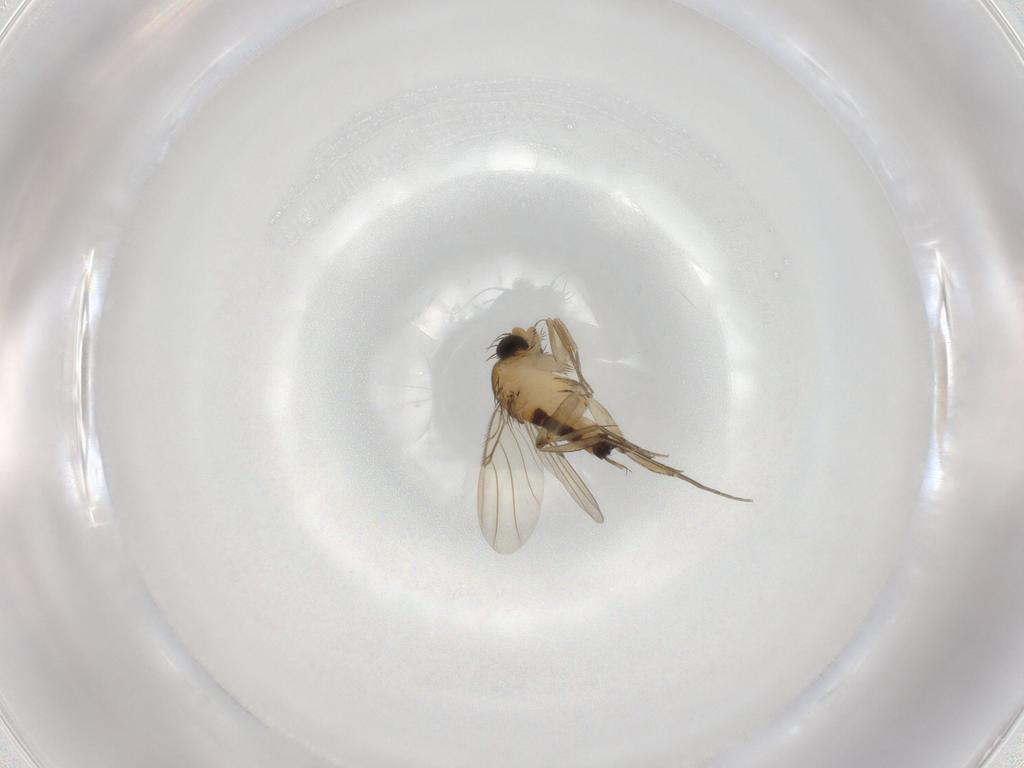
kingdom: Animalia
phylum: Arthropoda
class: Insecta
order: Diptera
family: Phoridae
